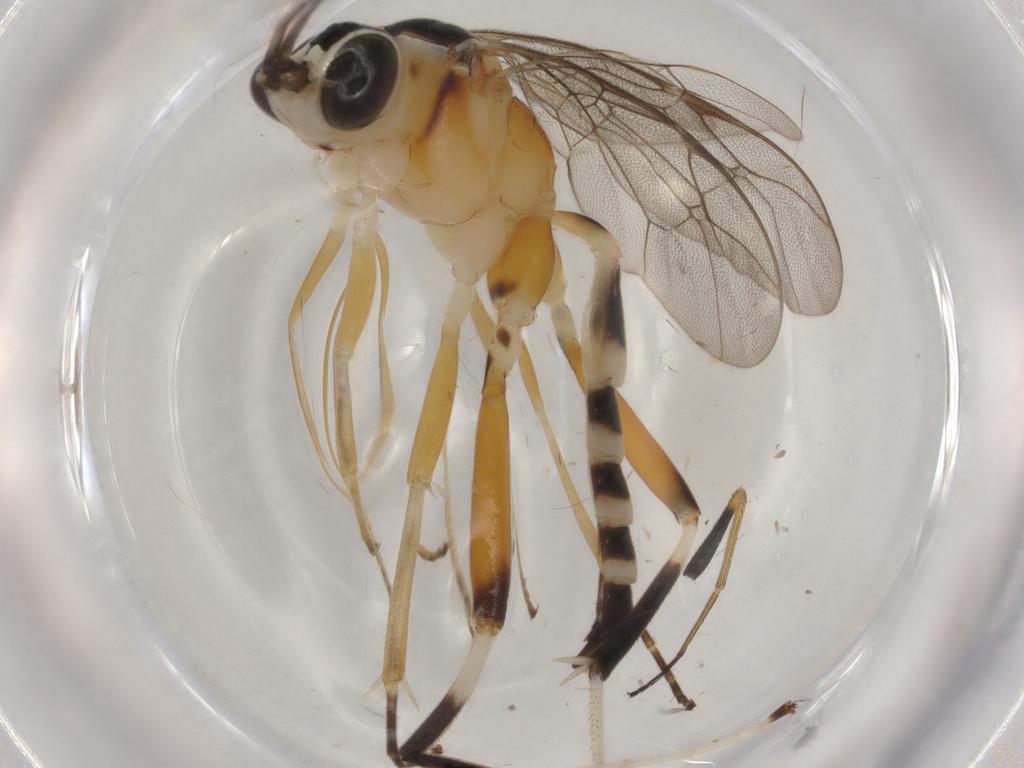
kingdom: Animalia
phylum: Arthropoda
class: Insecta
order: Hymenoptera
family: Ichneumonidae
